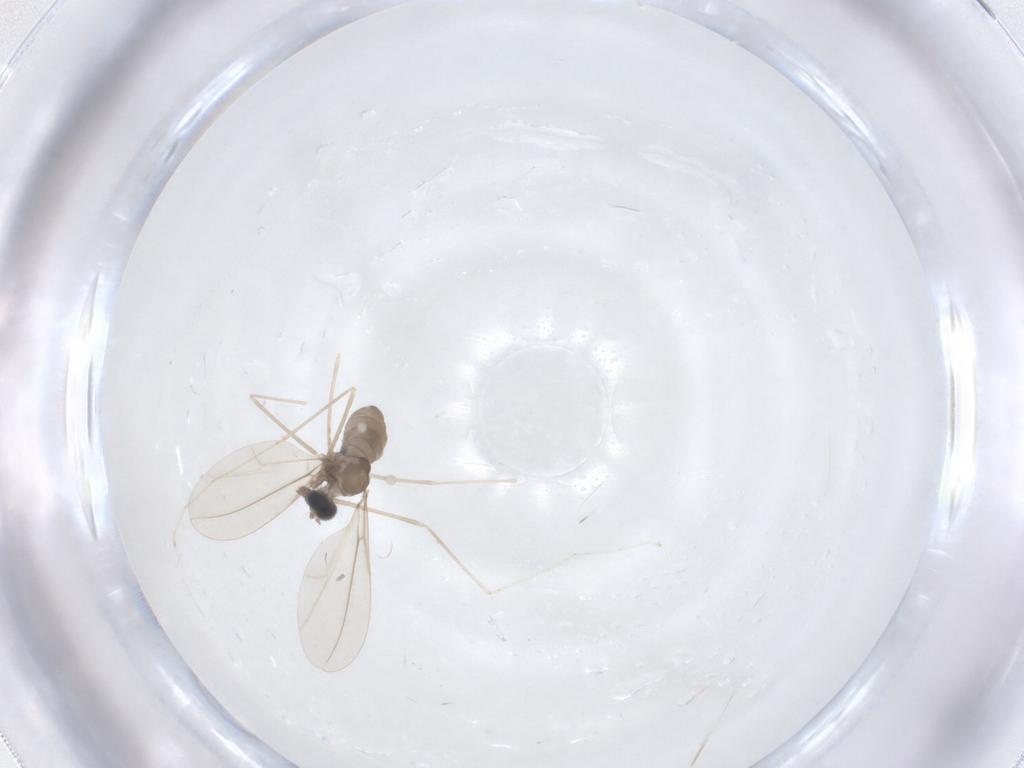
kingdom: Animalia
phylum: Arthropoda
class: Insecta
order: Diptera
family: Cecidomyiidae
